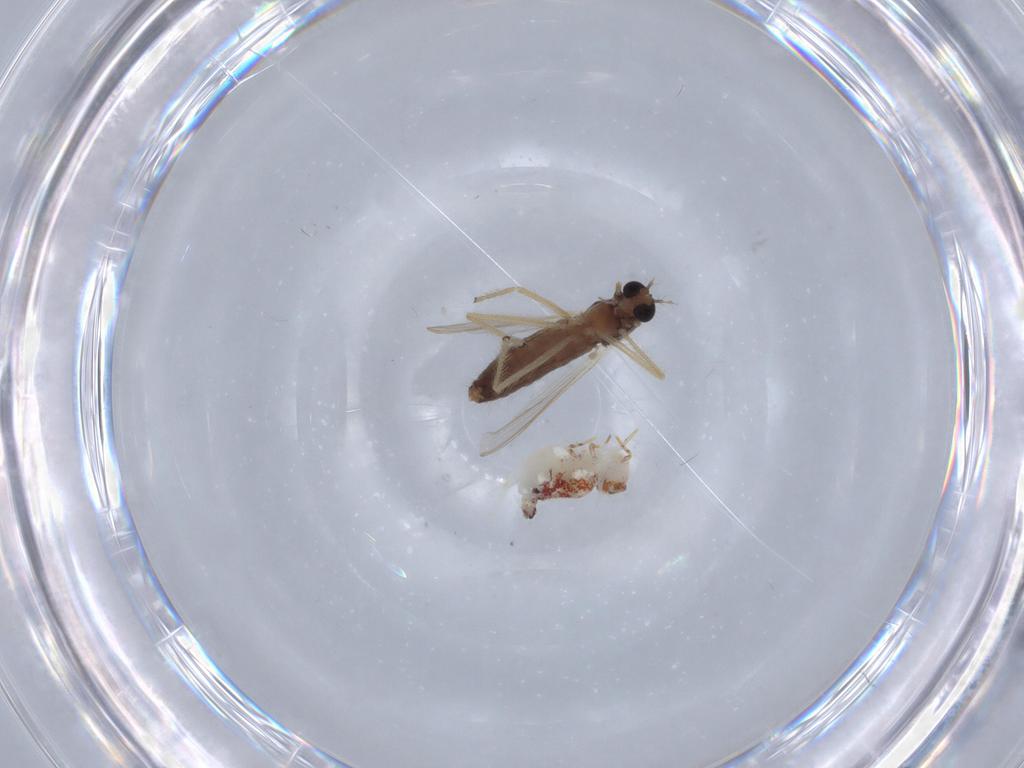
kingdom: Animalia
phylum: Arthropoda
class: Insecta
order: Diptera
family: Chironomidae
